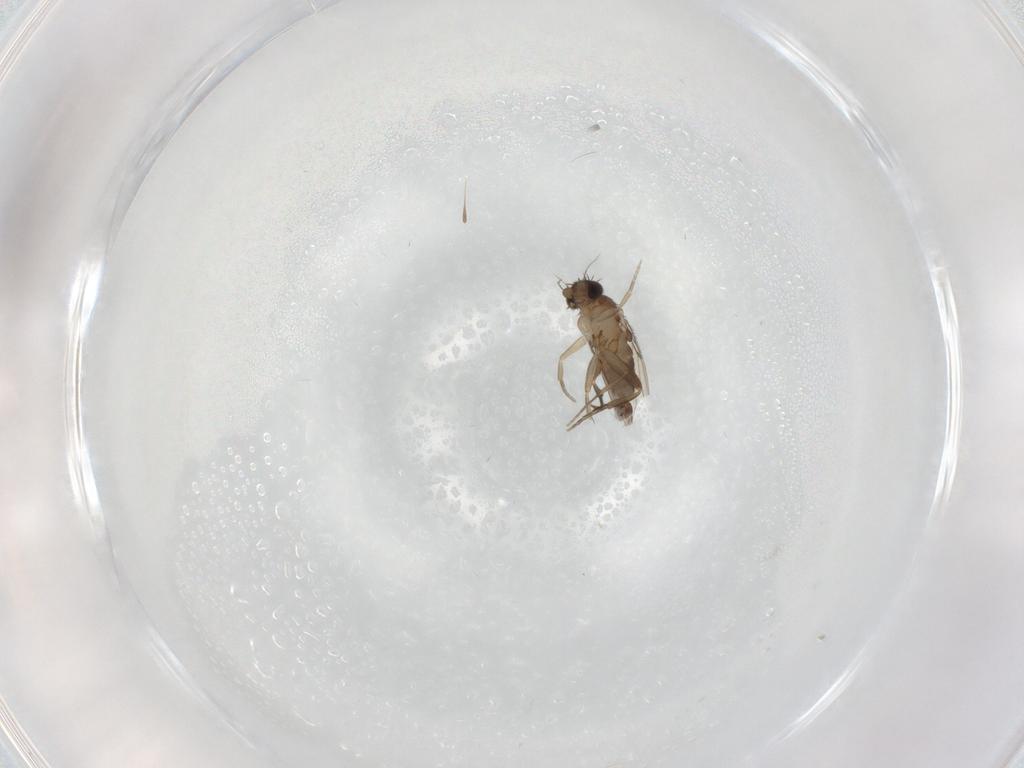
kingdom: Animalia
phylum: Arthropoda
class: Insecta
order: Diptera
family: Phoridae
